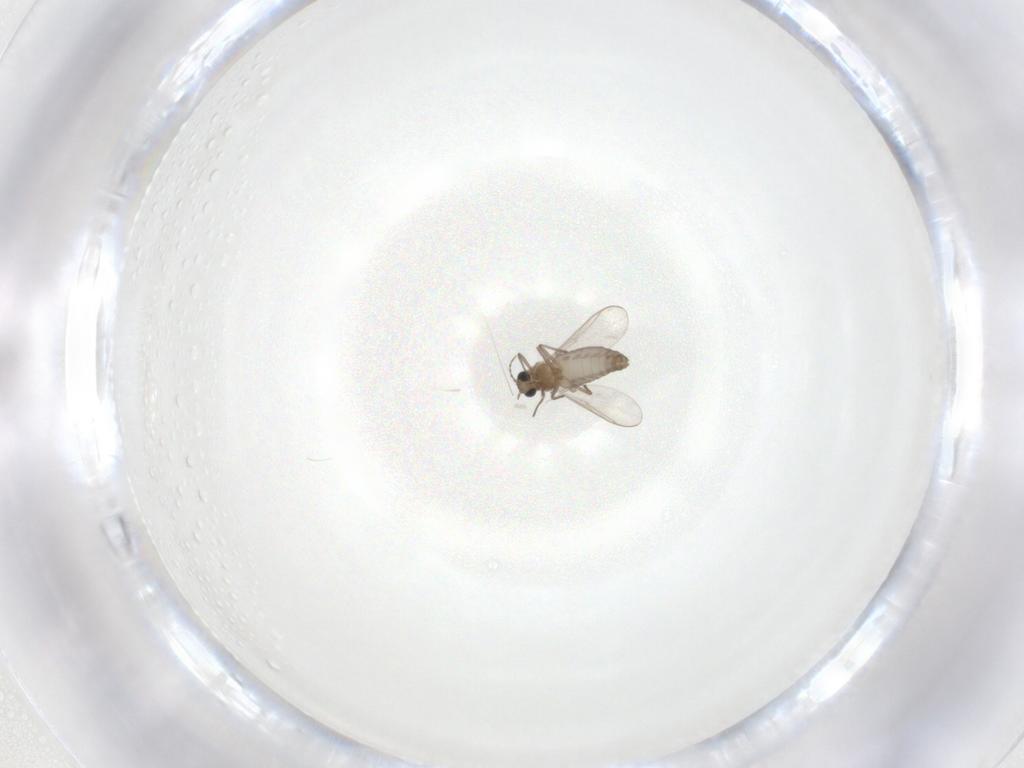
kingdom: Animalia
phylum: Arthropoda
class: Insecta
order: Diptera
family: Chironomidae
